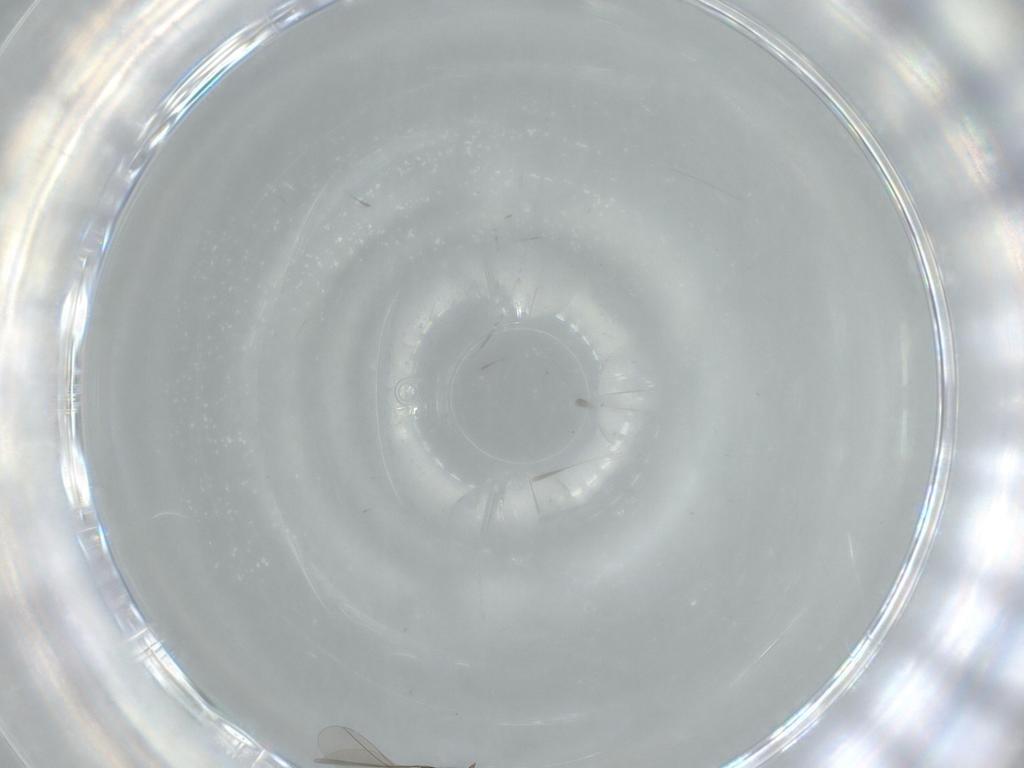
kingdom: Animalia
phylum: Arthropoda
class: Insecta
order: Diptera
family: Cecidomyiidae
